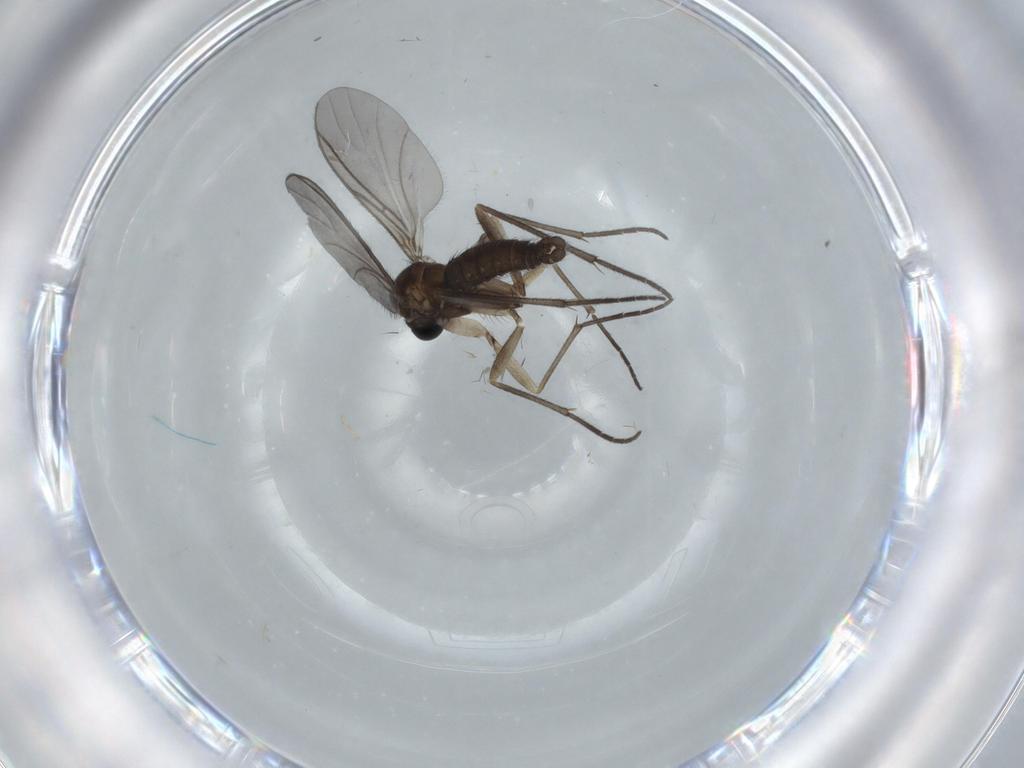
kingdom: Animalia
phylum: Arthropoda
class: Insecta
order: Diptera
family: Sciaridae
